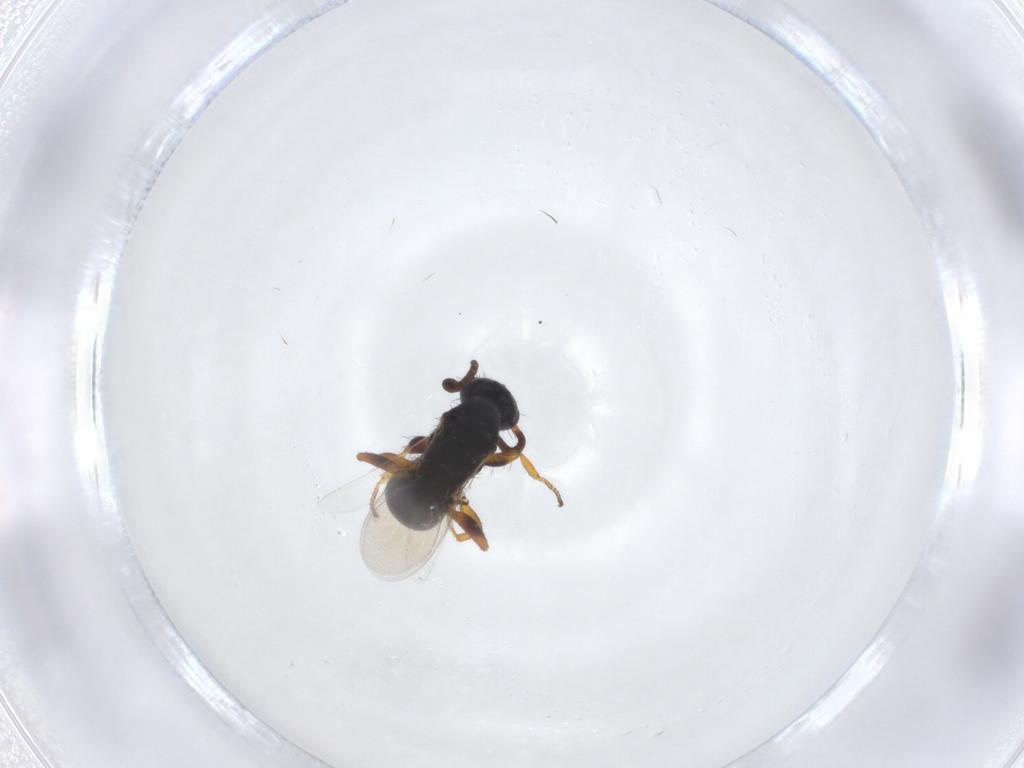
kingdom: Animalia
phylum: Arthropoda
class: Insecta
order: Hymenoptera
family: Bethylidae
